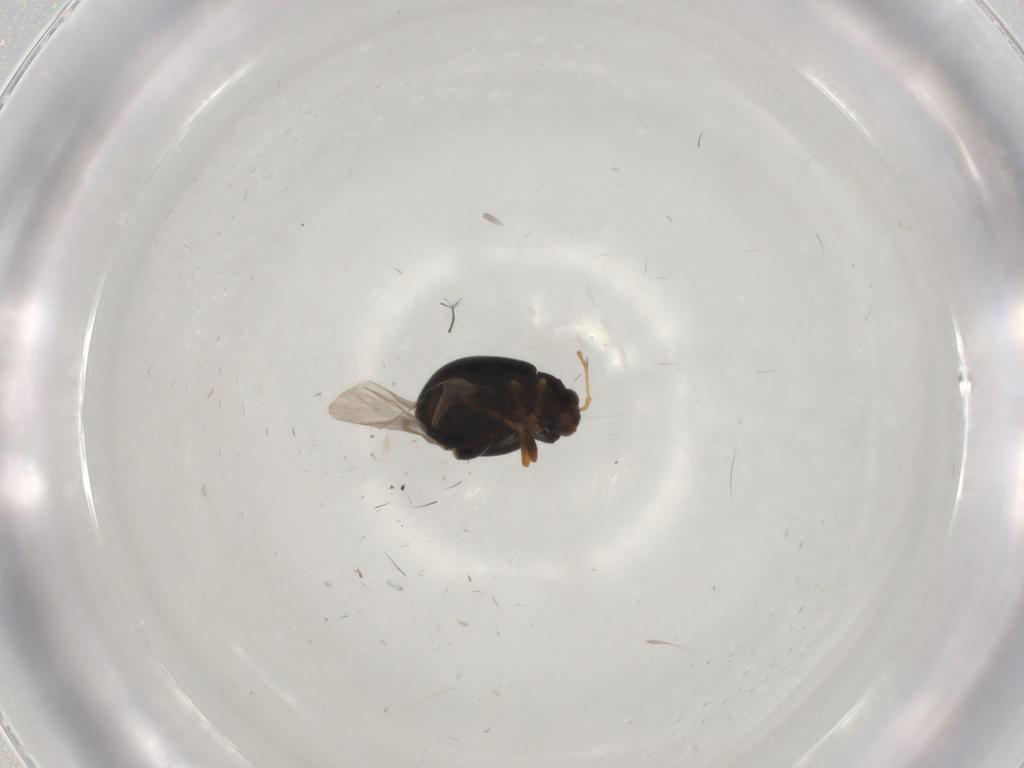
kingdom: Animalia
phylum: Arthropoda
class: Insecta
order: Coleoptera
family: Chrysomelidae
